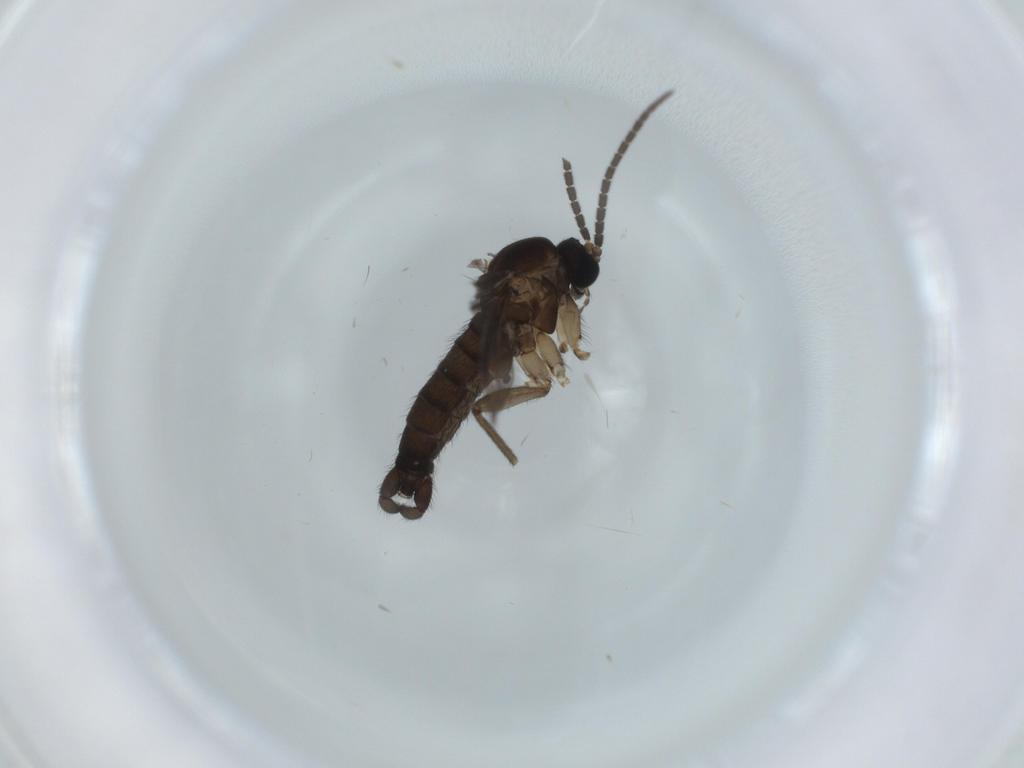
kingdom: Animalia
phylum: Arthropoda
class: Insecta
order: Diptera
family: Sciaridae
